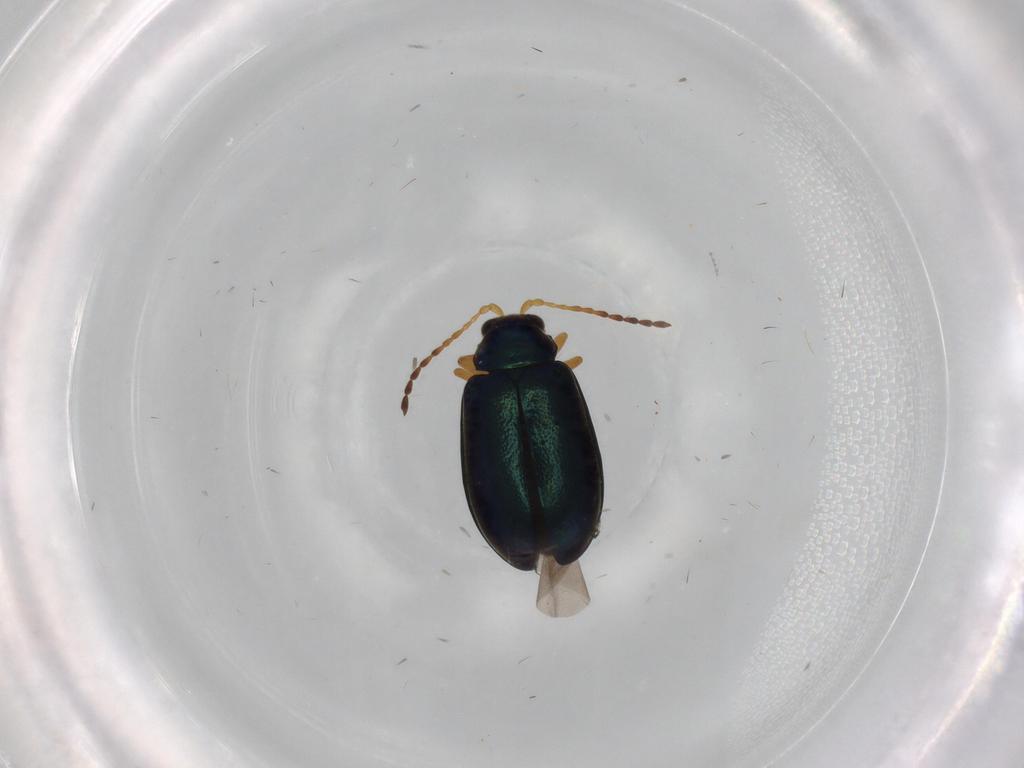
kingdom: Animalia
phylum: Arthropoda
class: Insecta
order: Coleoptera
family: Chrysomelidae
